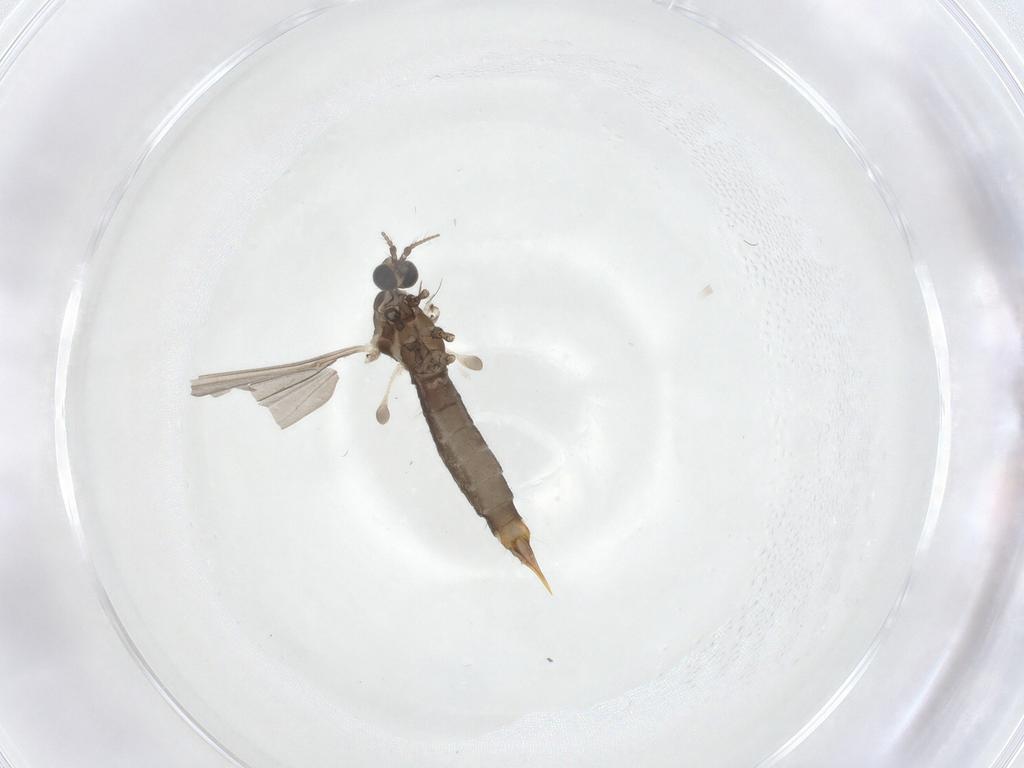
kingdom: Animalia
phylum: Arthropoda
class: Insecta
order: Diptera
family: Limoniidae
